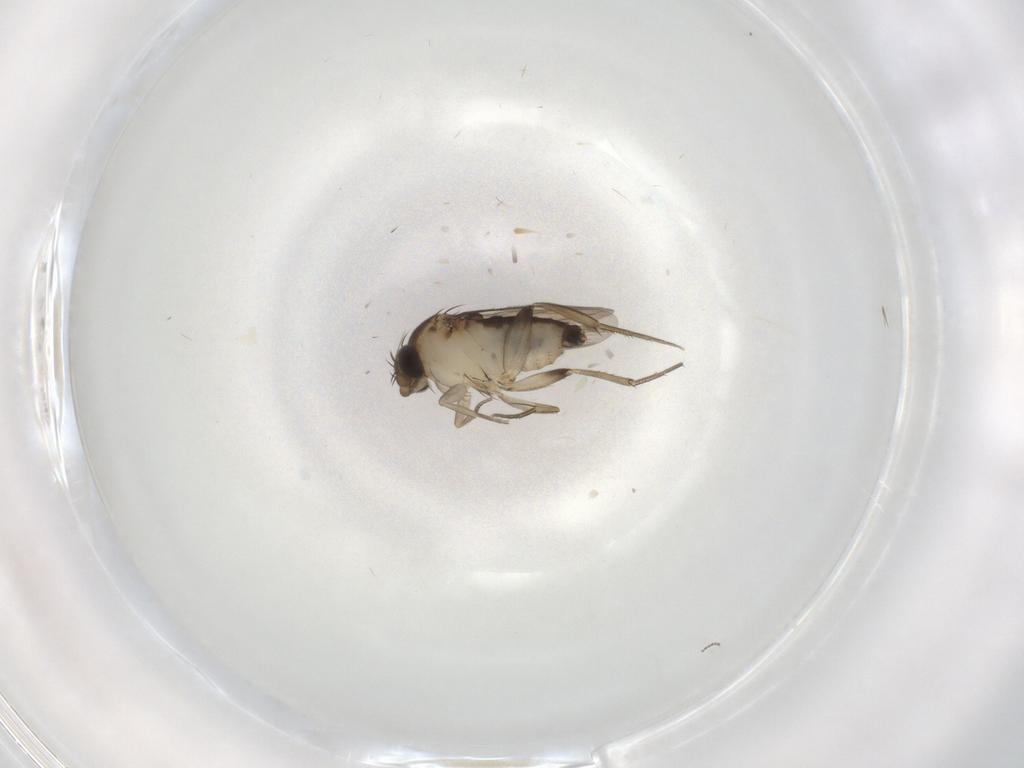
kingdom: Animalia
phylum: Arthropoda
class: Insecta
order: Diptera
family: Phoridae
